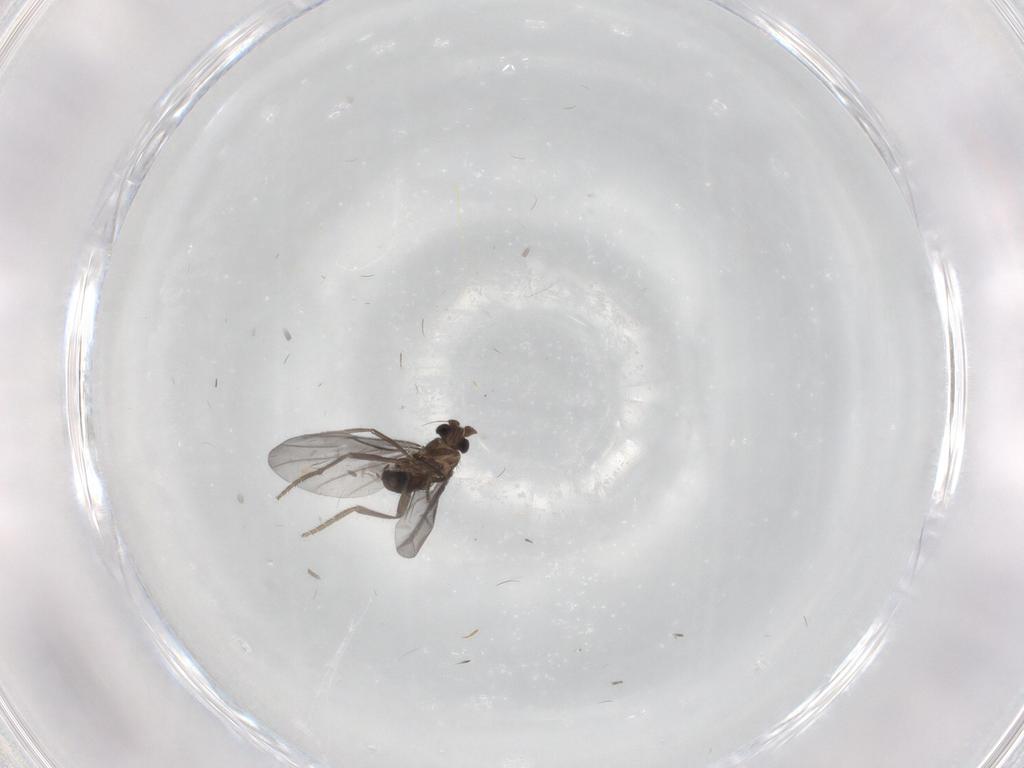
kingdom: Animalia
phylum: Arthropoda
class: Insecta
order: Diptera
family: Phoridae
